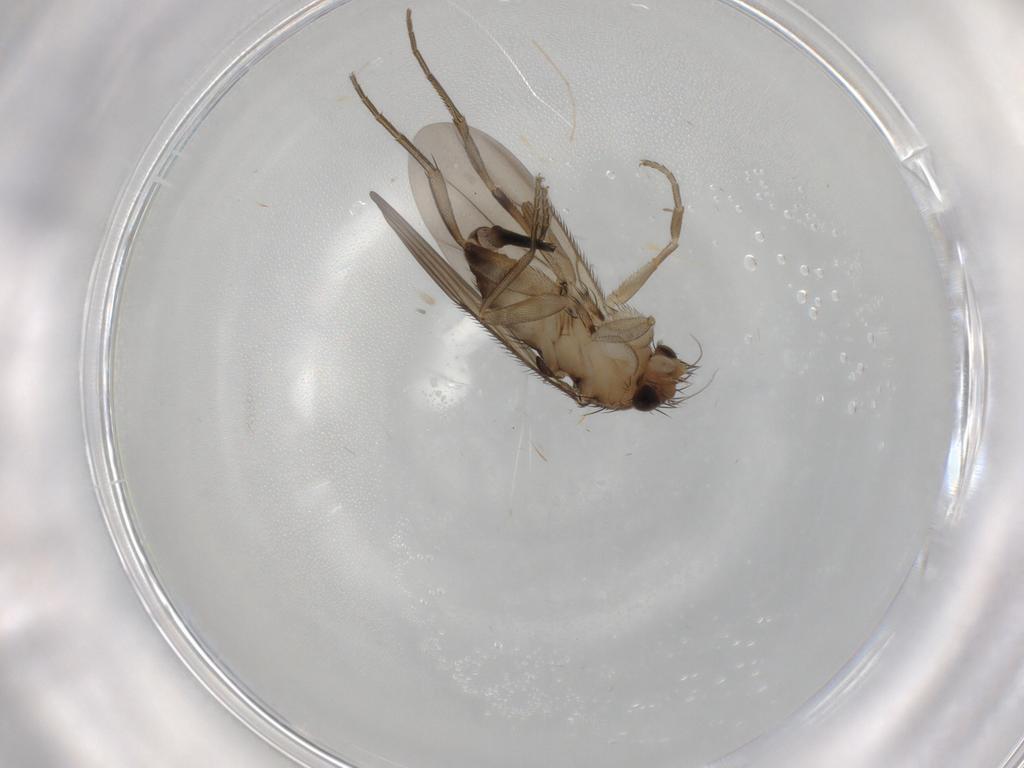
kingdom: Animalia
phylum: Arthropoda
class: Insecta
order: Diptera
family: Phoridae
